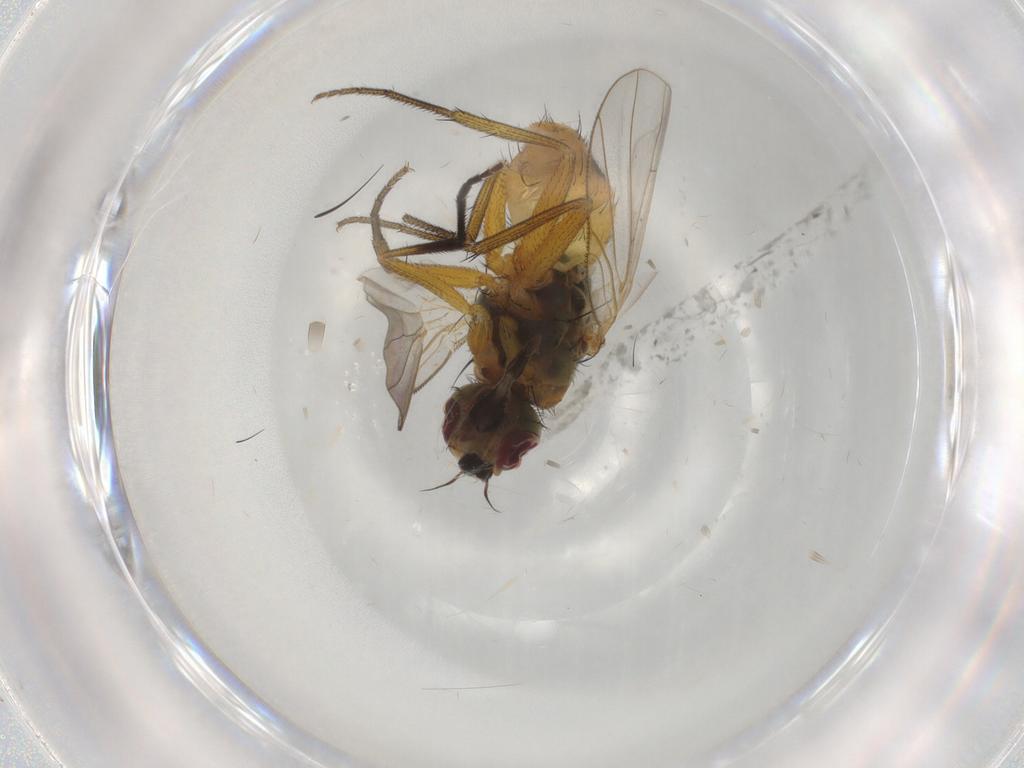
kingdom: Animalia
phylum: Arthropoda
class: Insecta
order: Diptera
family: Muscidae
